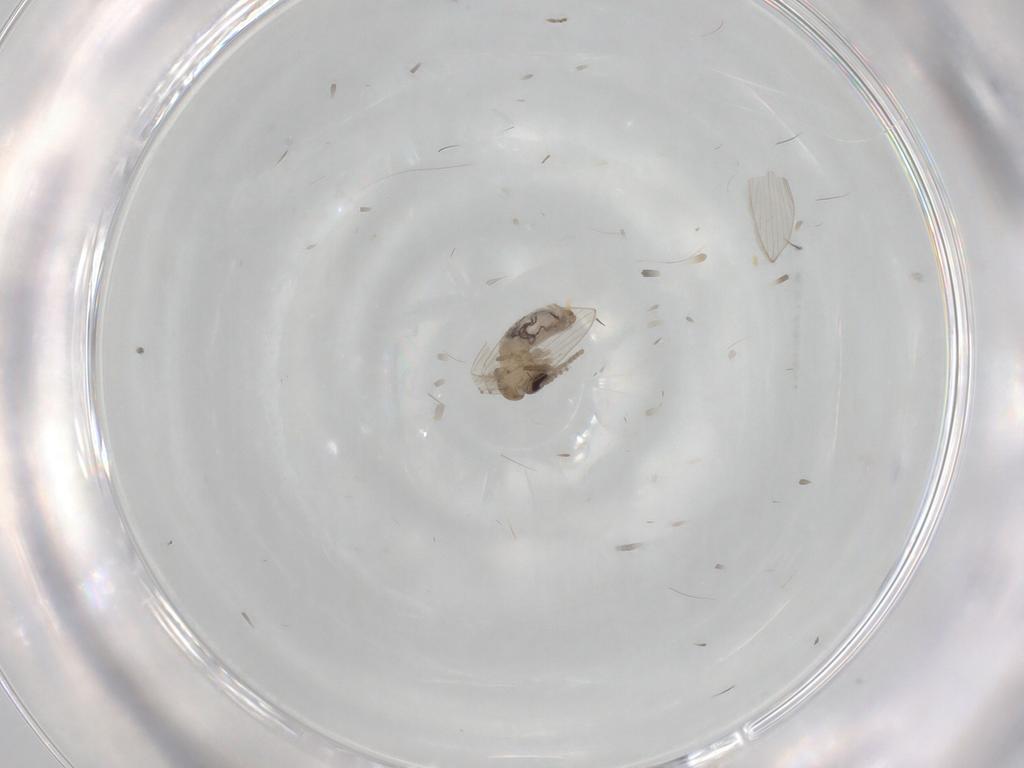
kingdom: Animalia
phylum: Arthropoda
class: Insecta
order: Diptera
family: Psychodidae
